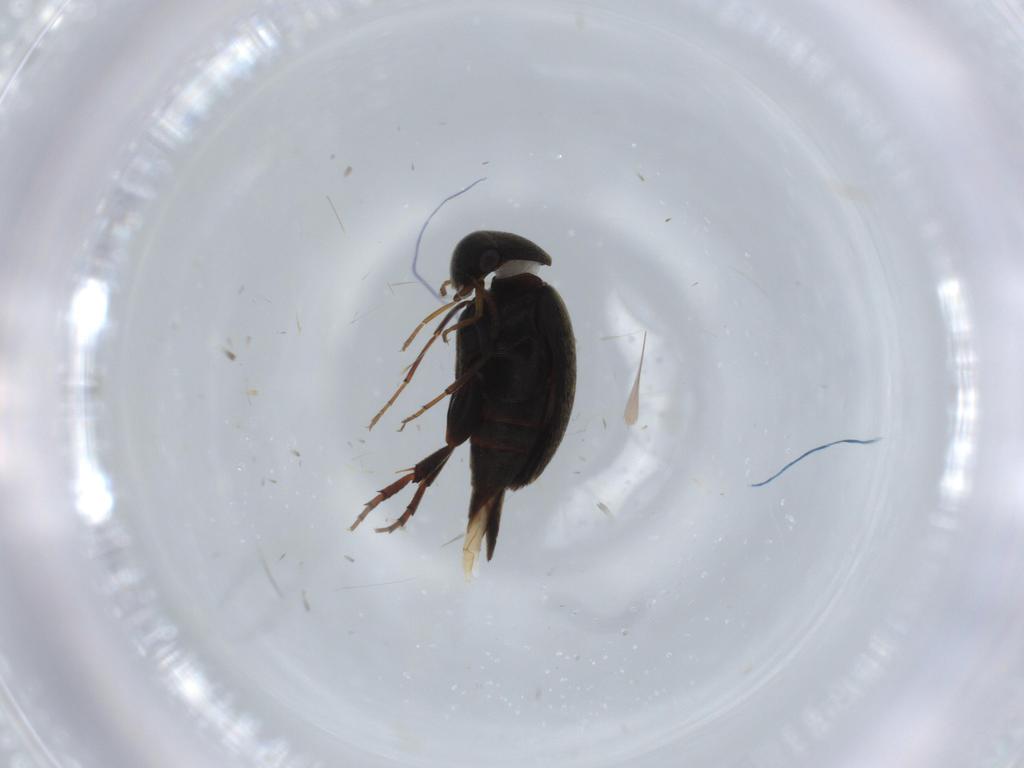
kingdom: Animalia
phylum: Arthropoda
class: Insecta
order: Coleoptera
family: Mordellidae
